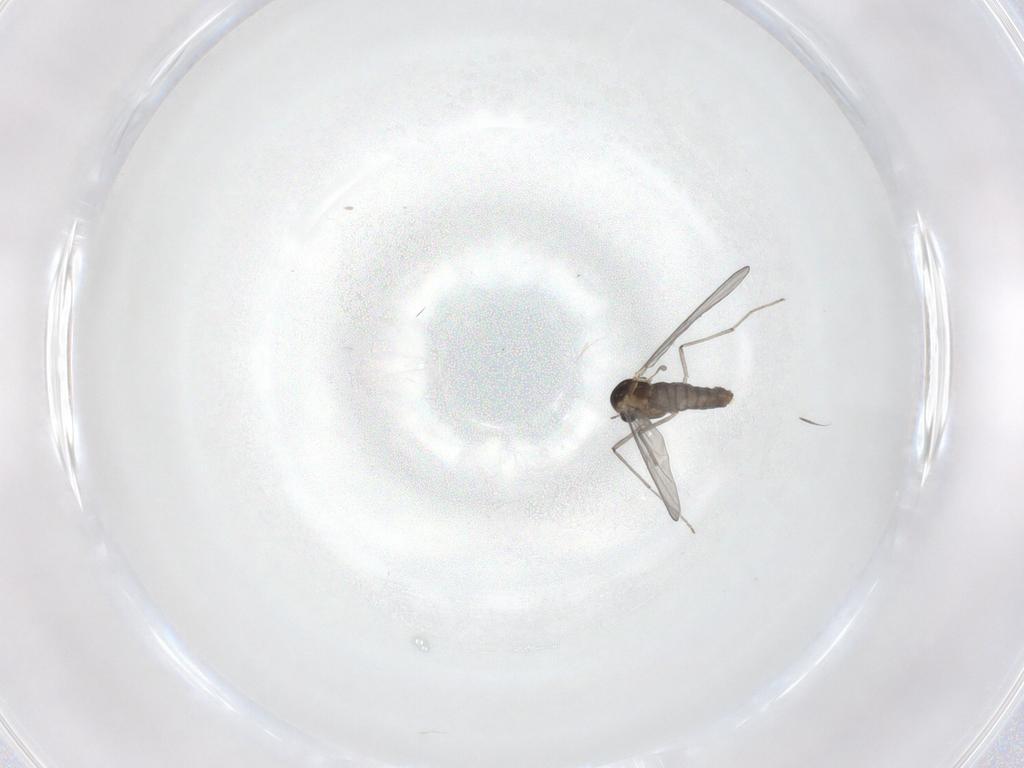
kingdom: Animalia
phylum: Arthropoda
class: Insecta
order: Diptera
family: Chironomidae
